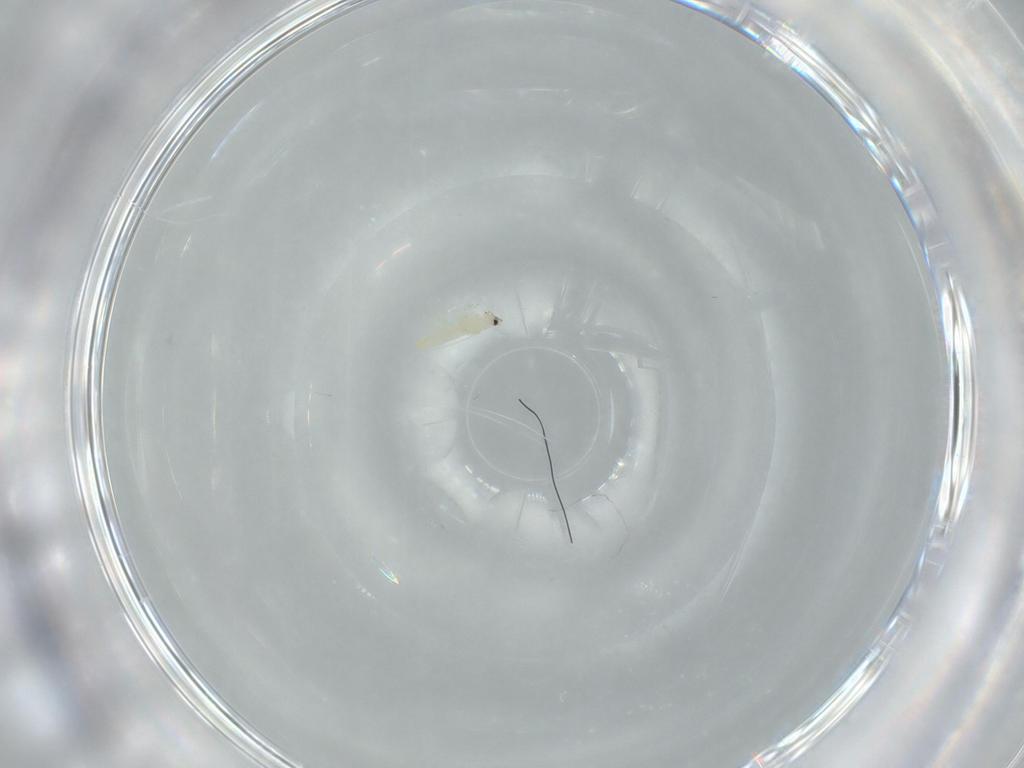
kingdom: Animalia
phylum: Arthropoda
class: Insecta
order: Thysanoptera
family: Thripidae
